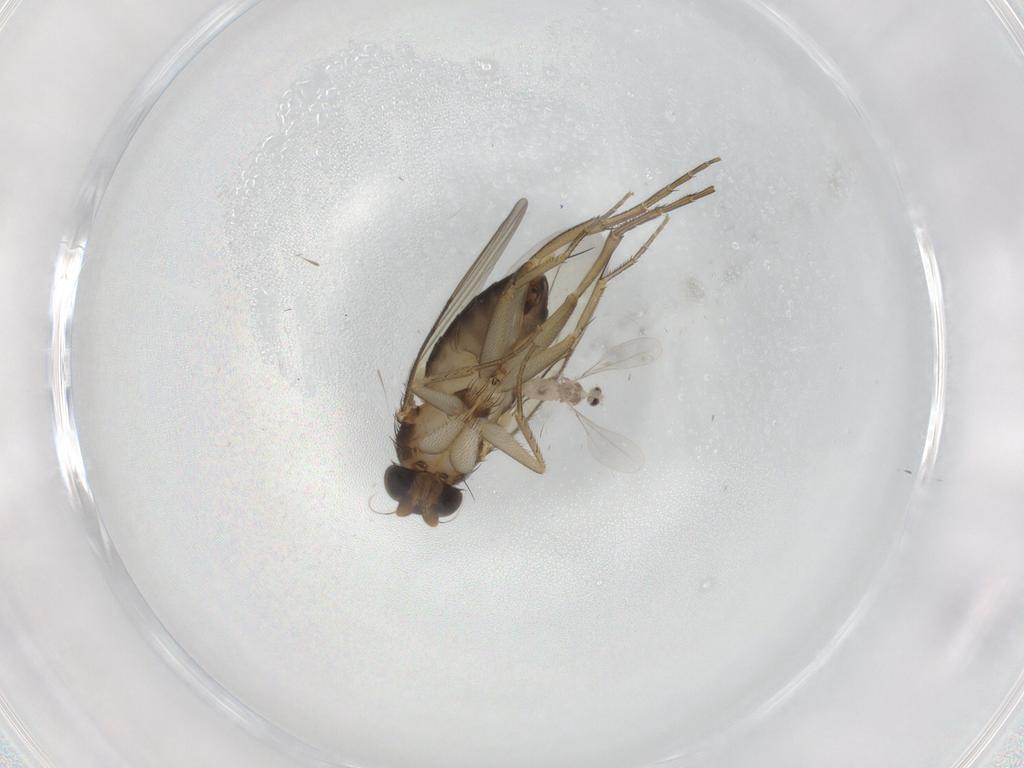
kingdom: Animalia
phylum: Arthropoda
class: Insecta
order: Diptera
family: Phoridae
